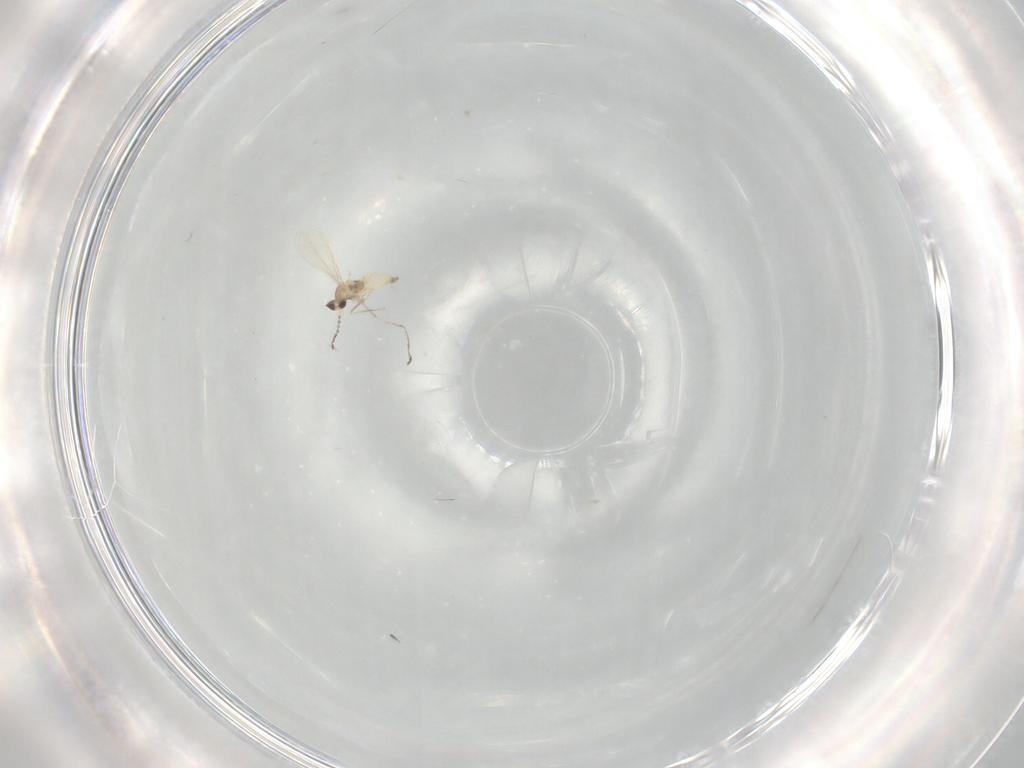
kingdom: Animalia
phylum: Arthropoda
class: Insecta
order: Diptera
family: Cecidomyiidae
